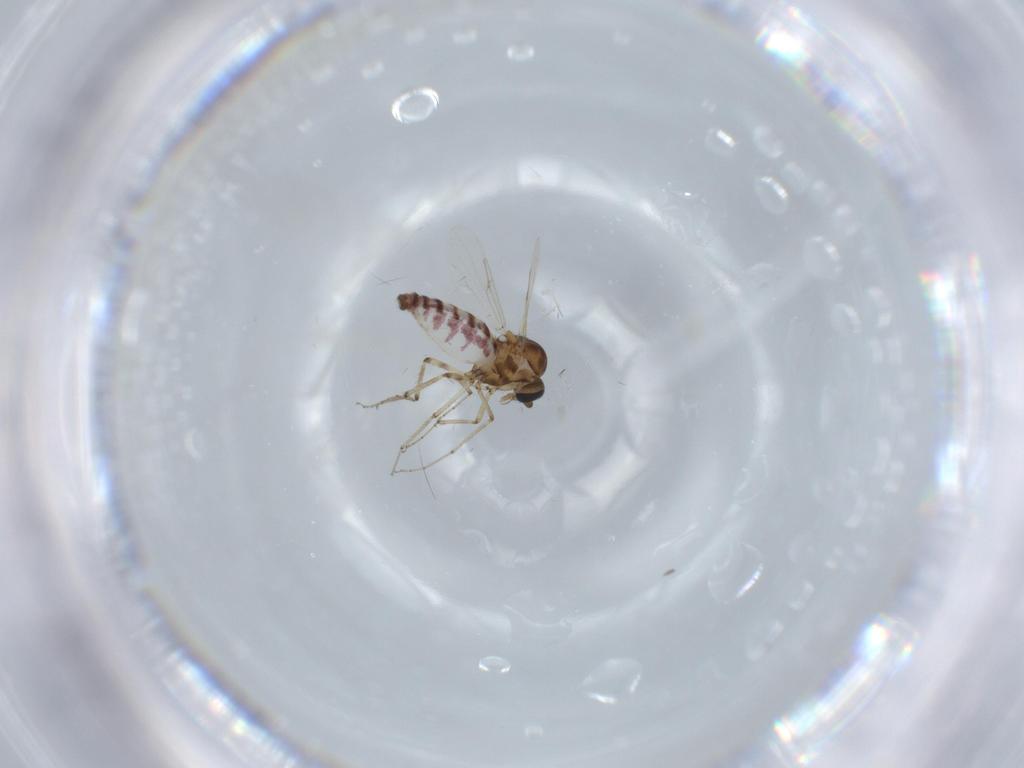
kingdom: Animalia
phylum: Arthropoda
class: Insecta
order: Diptera
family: Ceratopogonidae
